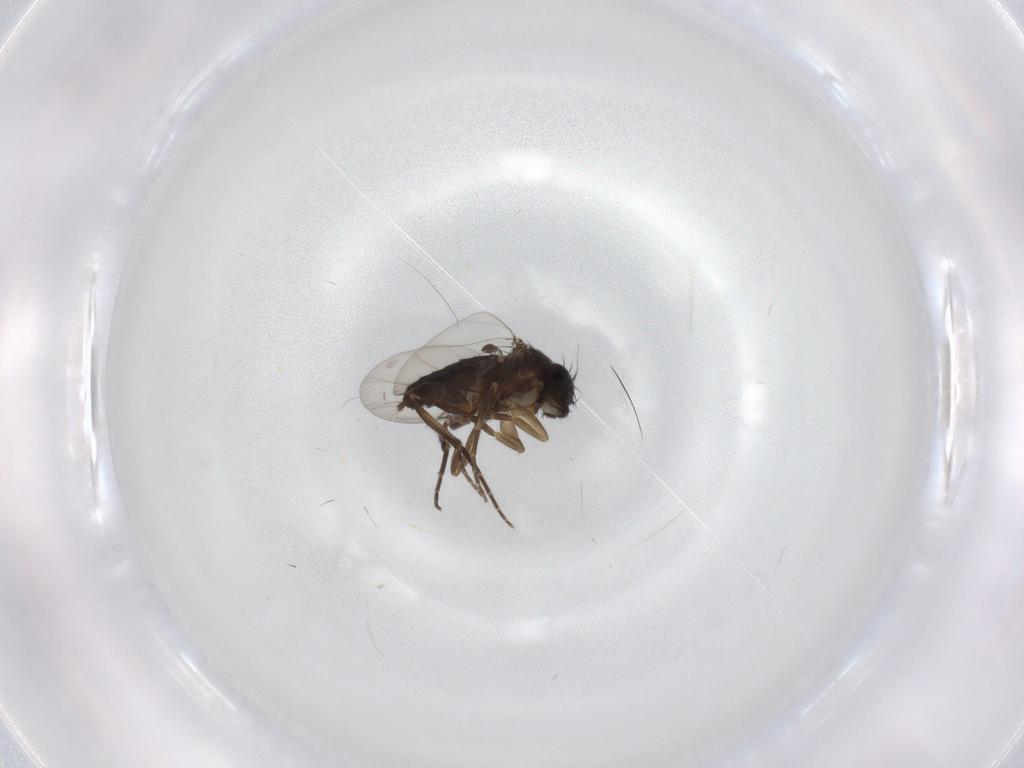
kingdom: Animalia
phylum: Arthropoda
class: Insecta
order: Diptera
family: Phoridae
